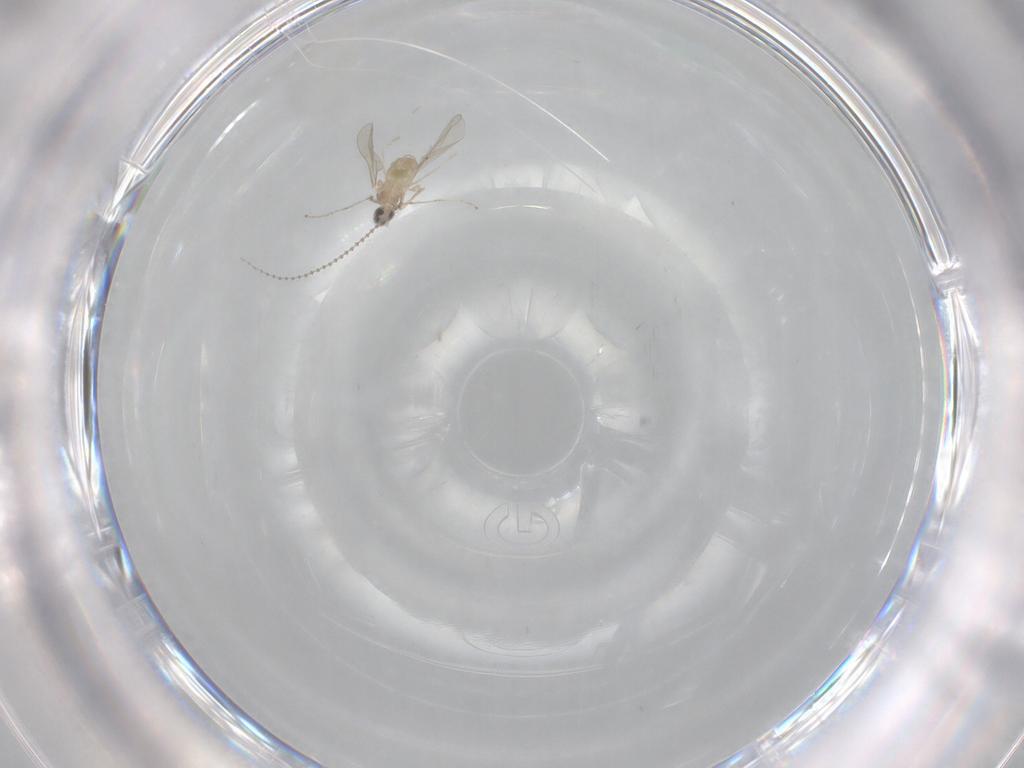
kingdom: Animalia
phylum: Arthropoda
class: Insecta
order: Diptera
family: Cecidomyiidae
